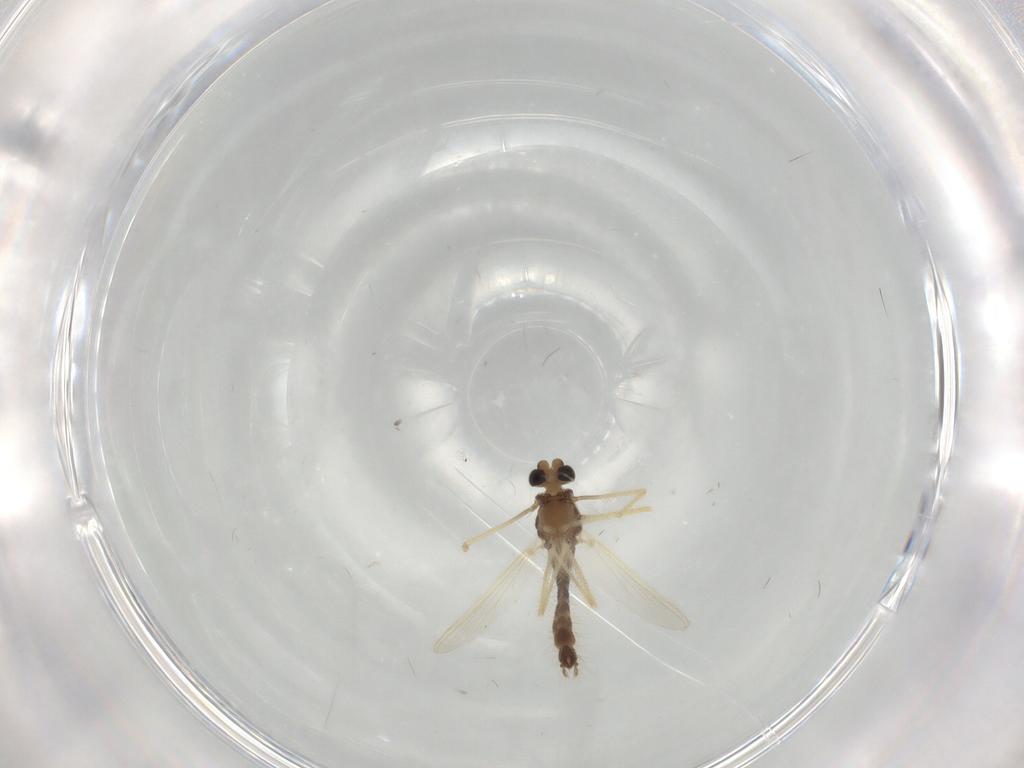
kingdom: Animalia
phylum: Arthropoda
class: Insecta
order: Diptera
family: Chironomidae
